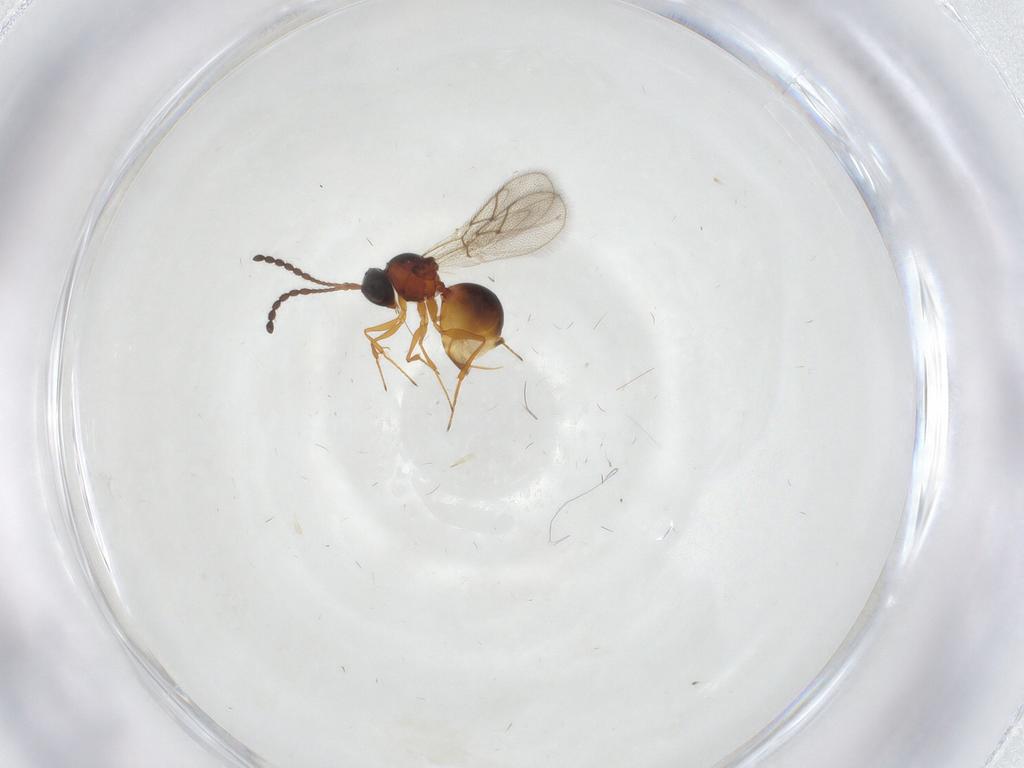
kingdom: Animalia
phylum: Arthropoda
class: Insecta
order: Hymenoptera
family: Figitidae
